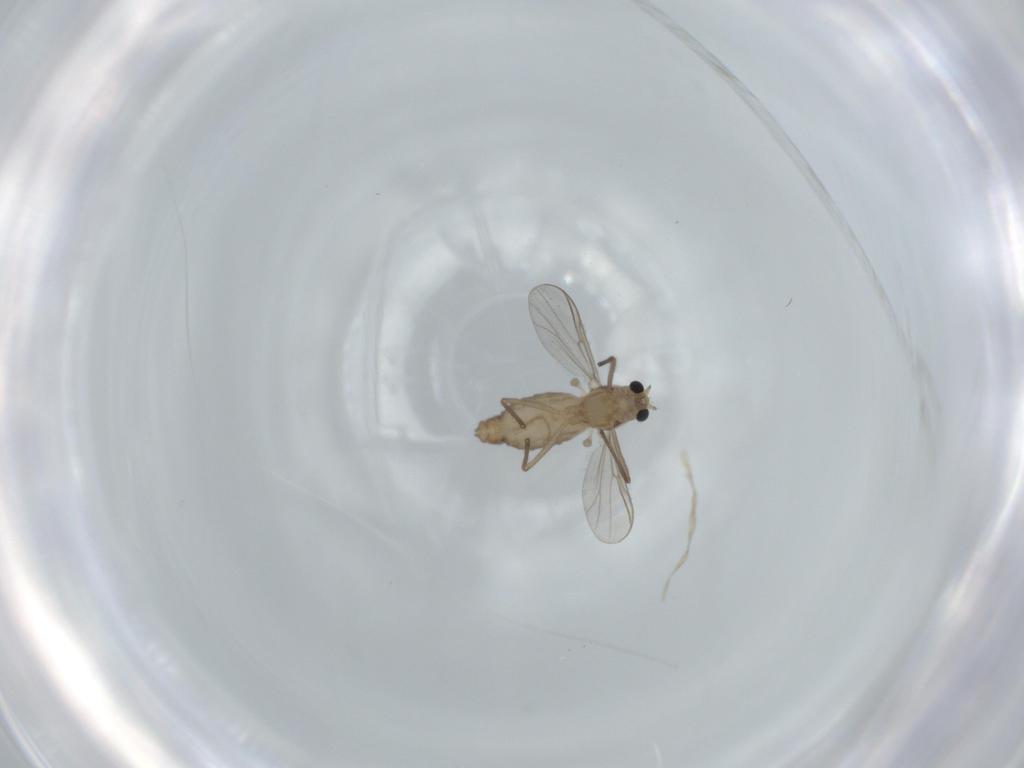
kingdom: Animalia
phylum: Arthropoda
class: Insecta
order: Diptera
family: Chironomidae
